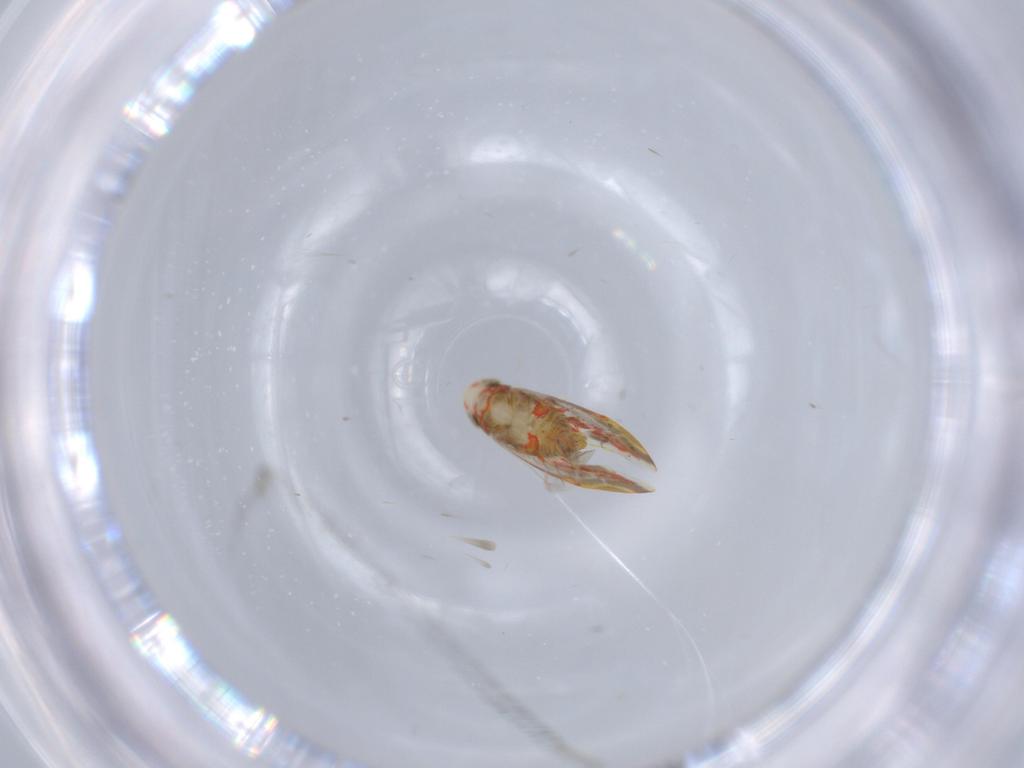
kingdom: Animalia
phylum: Arthropoda
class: Insecta
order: Hemiptera
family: Cicadellidae
